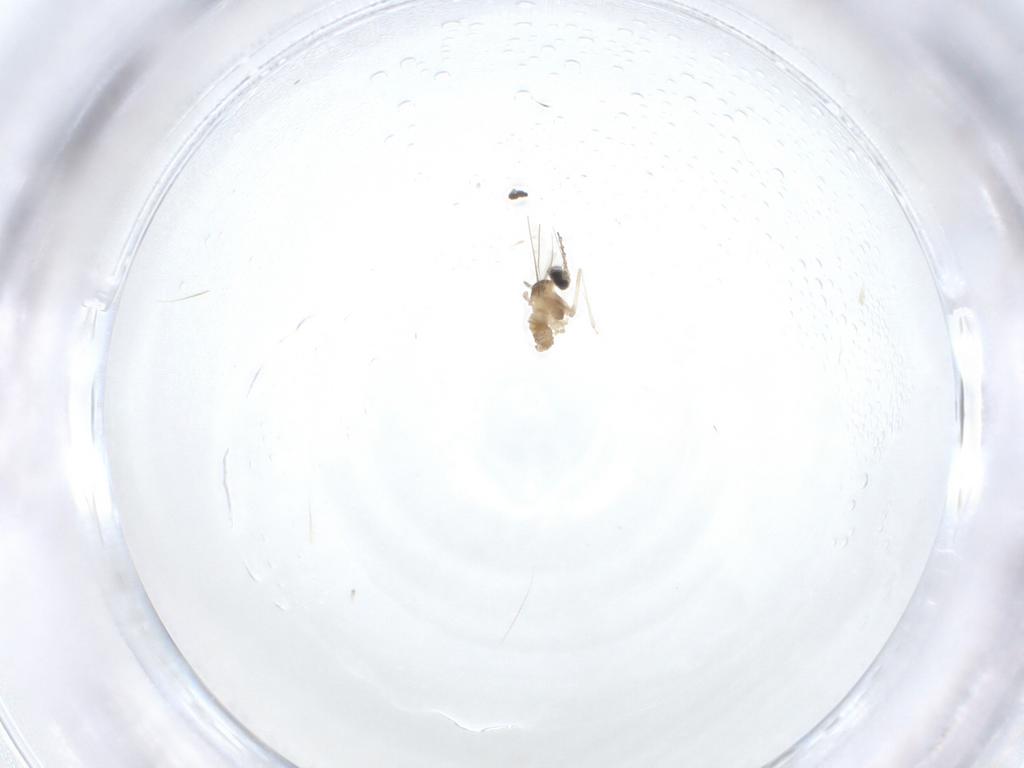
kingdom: Animalia
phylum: Arthropoda
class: Insecta
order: Diptera
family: Cecidomyiidae
